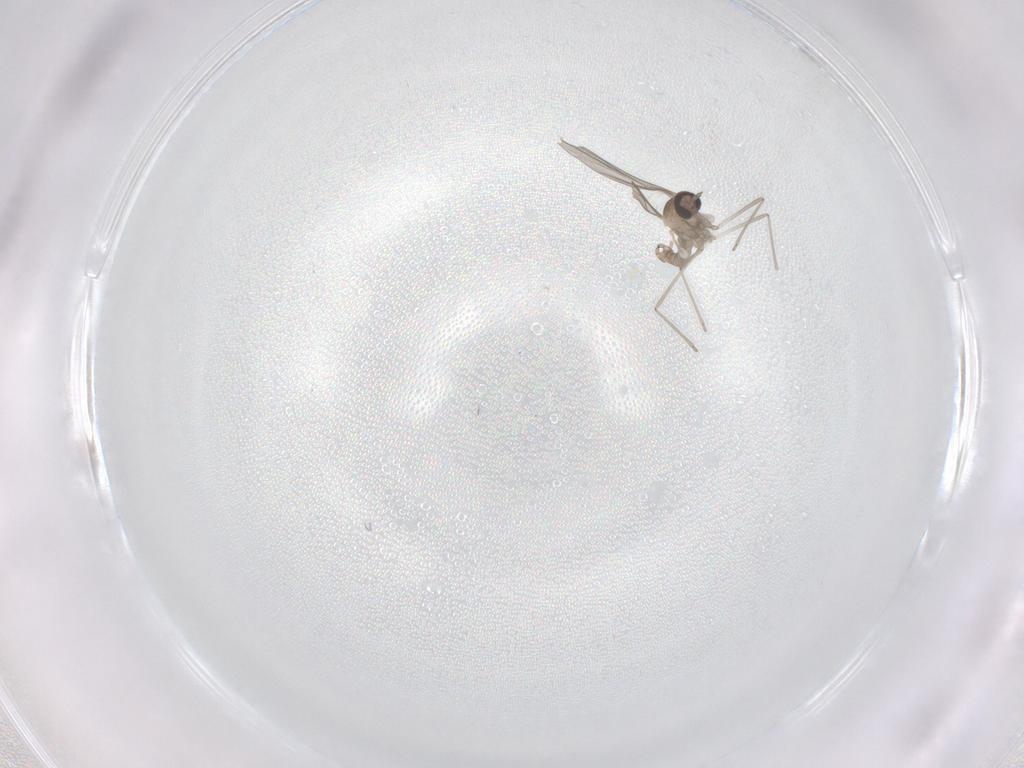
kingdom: Animalia
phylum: Arthropoda
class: Insecta
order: Diptera
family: Cecidomyiidae
